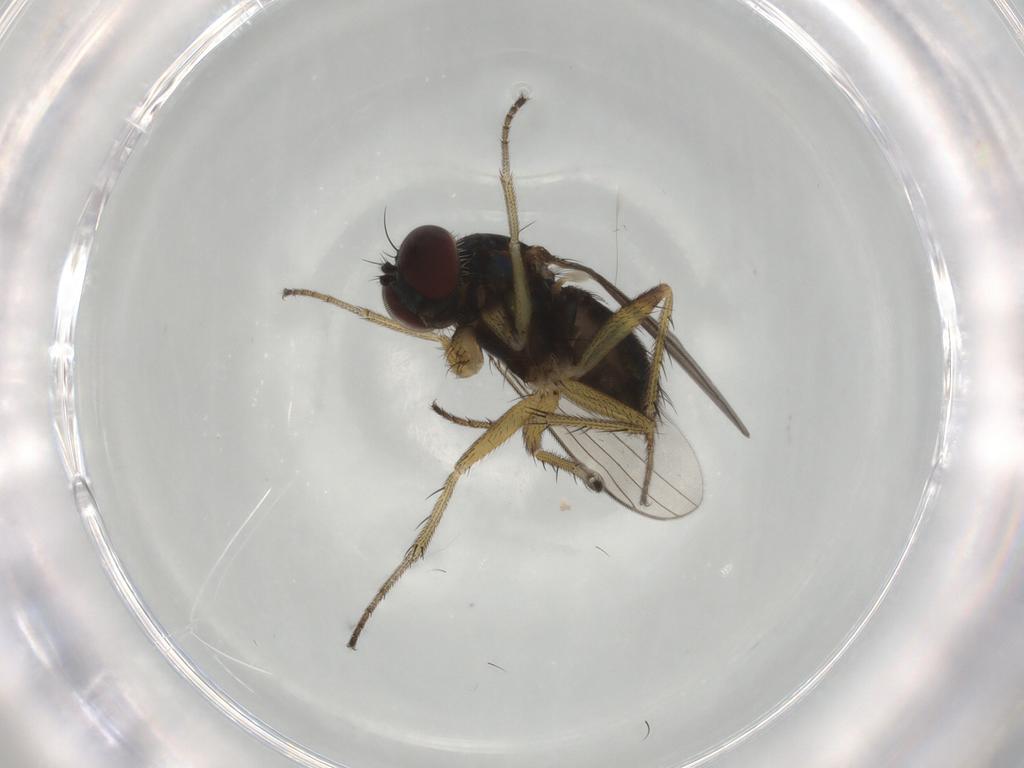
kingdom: Animalia
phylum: Arthropoda
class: Insecta
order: Diptera
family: Dolichopodidae
